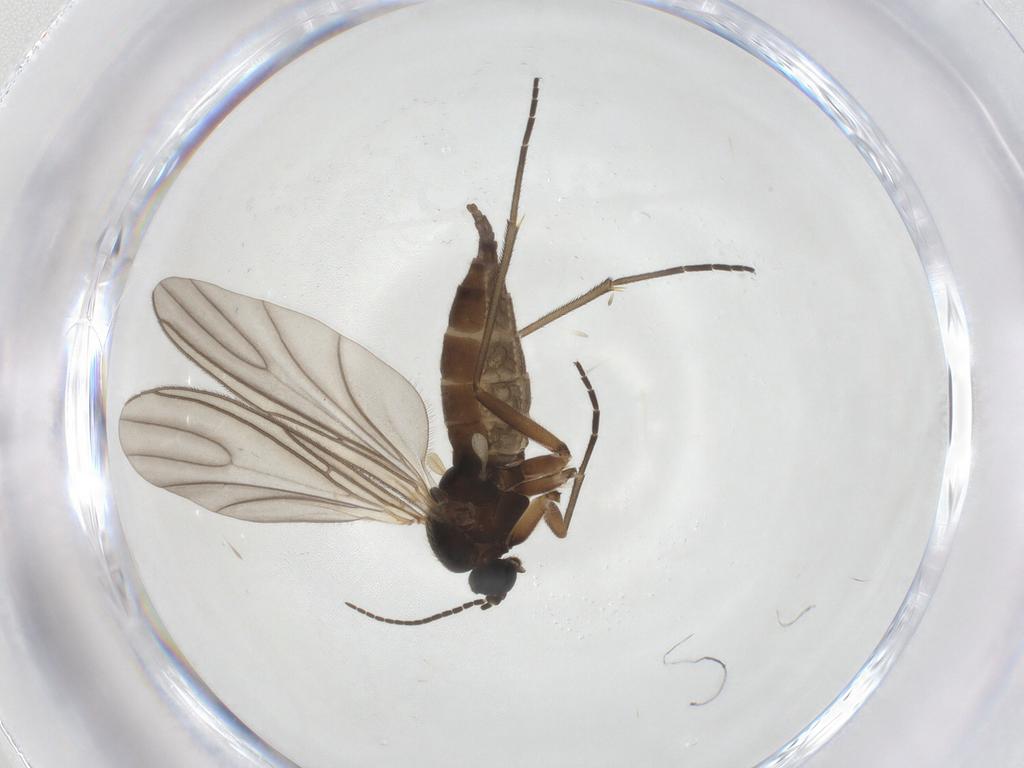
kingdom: Animalia
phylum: Arthropoda
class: Insecta
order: Diptera
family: Sciaridae
